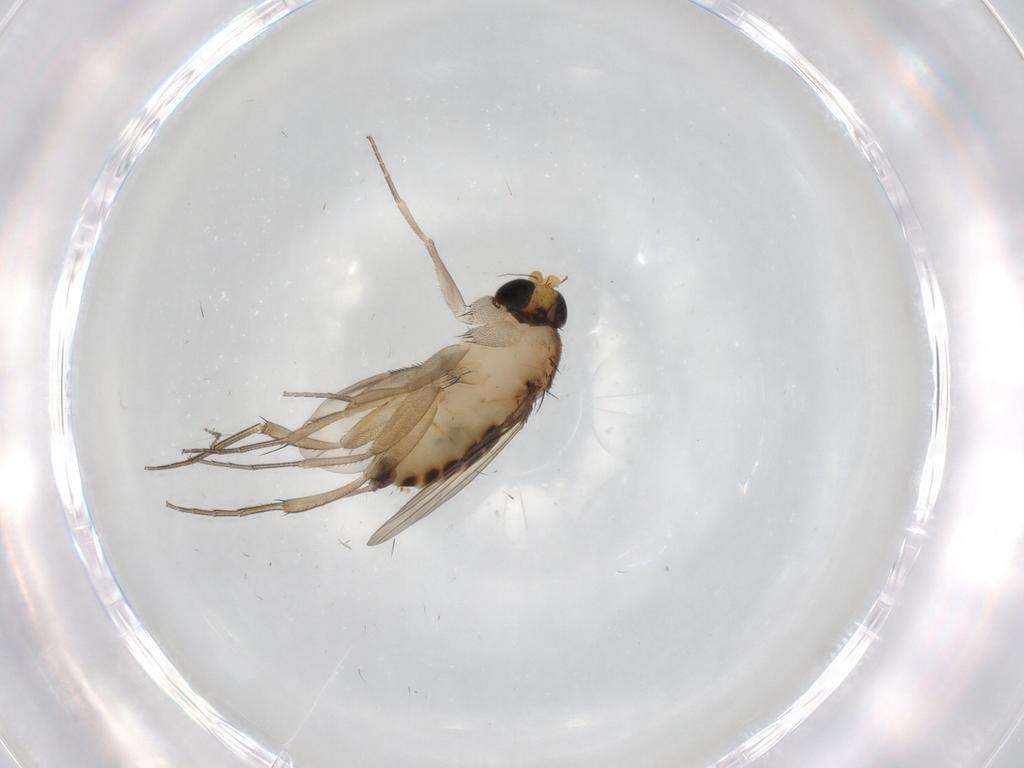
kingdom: Animalia
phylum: Arthropoda
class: Insecta
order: Diptera
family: Phoridae
